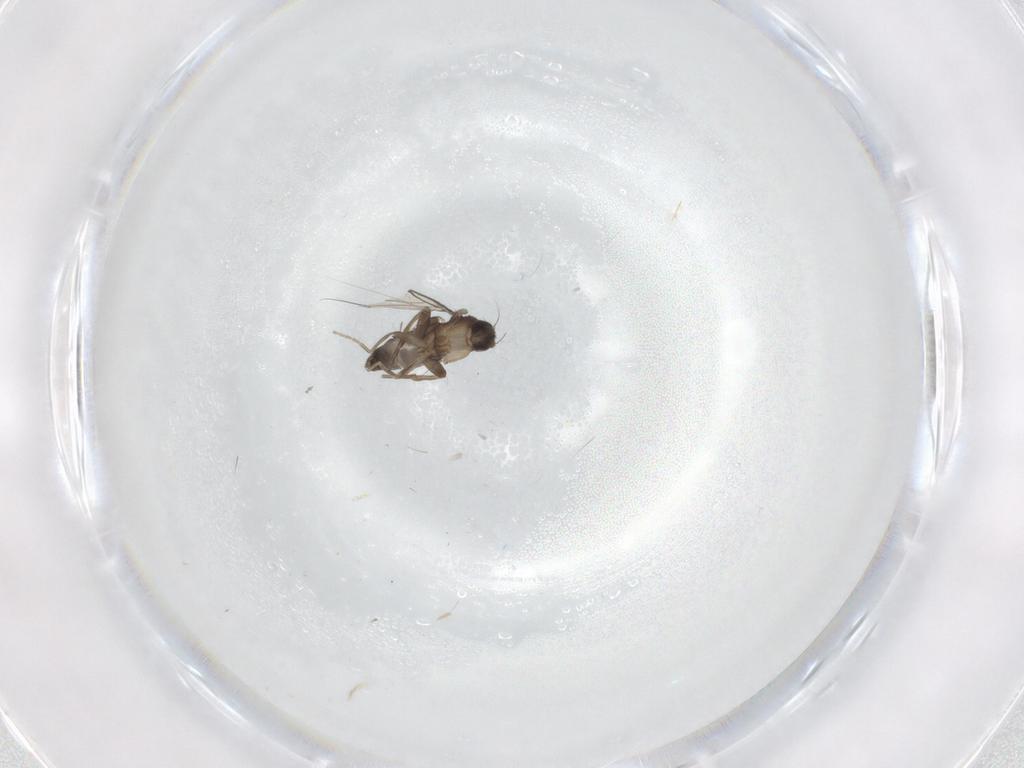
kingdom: Animalia
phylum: Arthropoda
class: Insecta
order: Diptera
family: Phoridae
